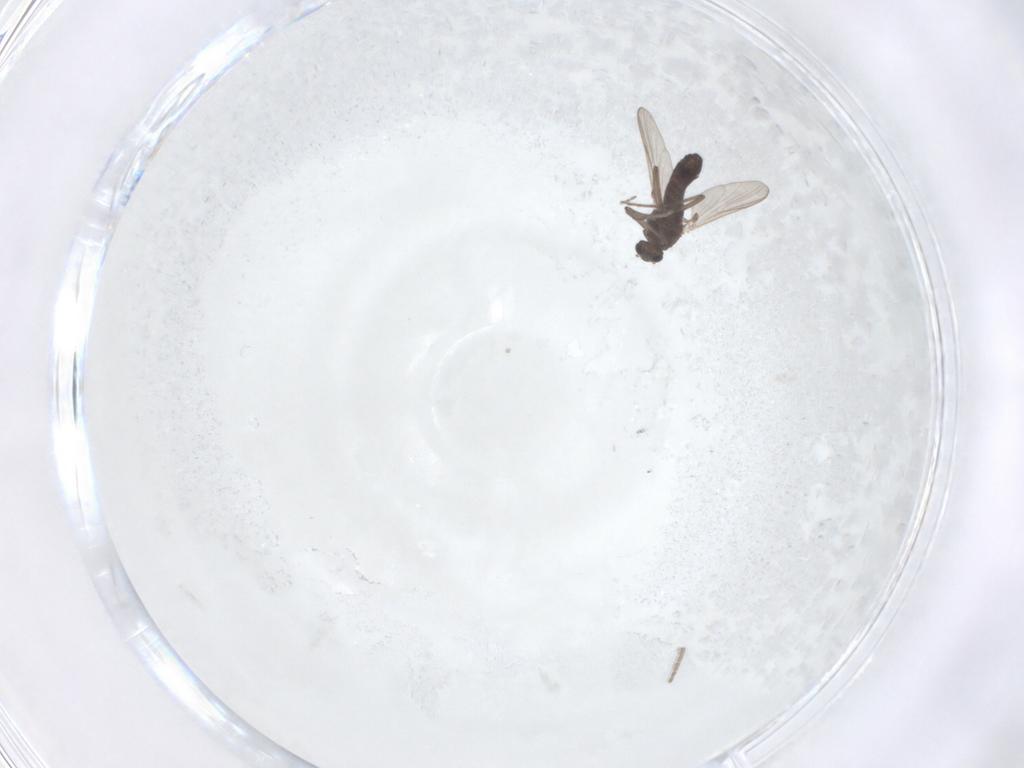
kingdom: Animalia
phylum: Arthropoda
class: Insecta
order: Diptera
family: Chironomidae
